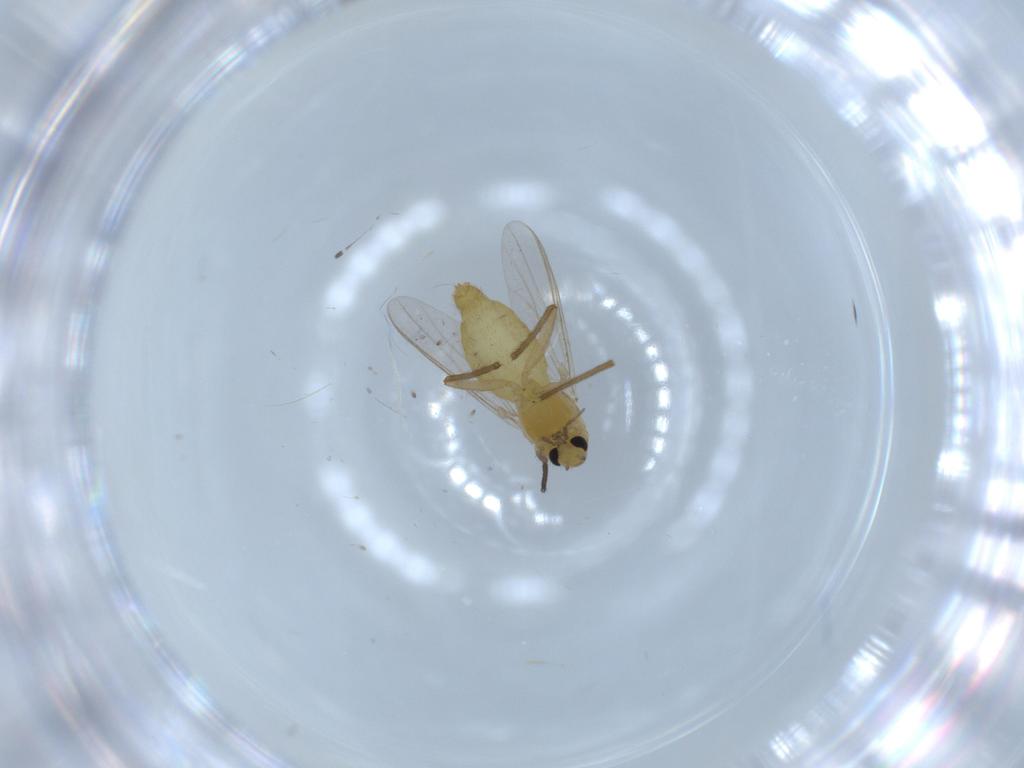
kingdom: Animalia
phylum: Arthropoda
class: Insecta
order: Diptera
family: Chironomidae
